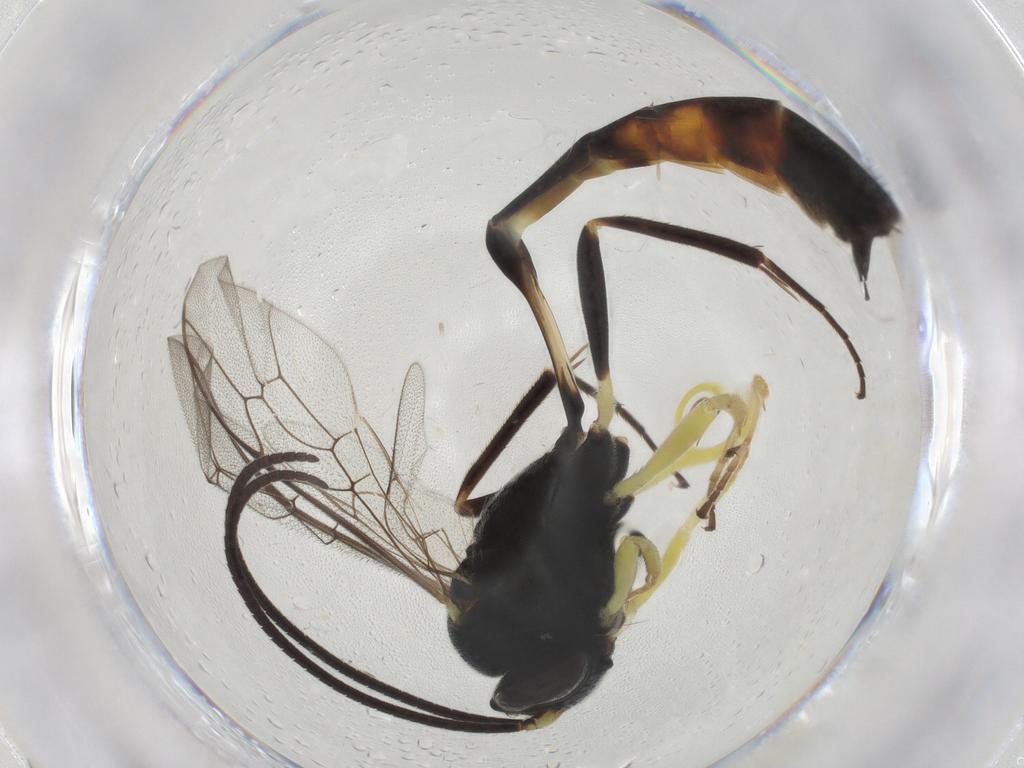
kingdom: Animalia
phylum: Arthropoda
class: Insecta
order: Hymenoptera
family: Ichneumonidae
